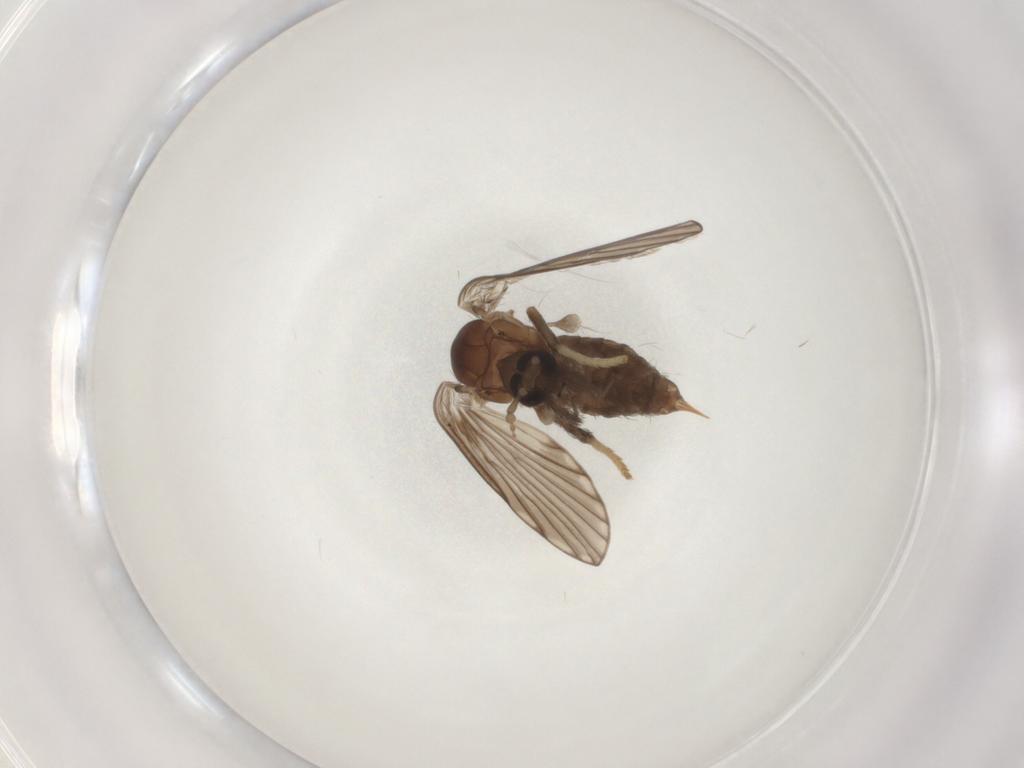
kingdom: Animalia
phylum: Arthropoda
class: Insecta
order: Diptera
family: Psychodidae
